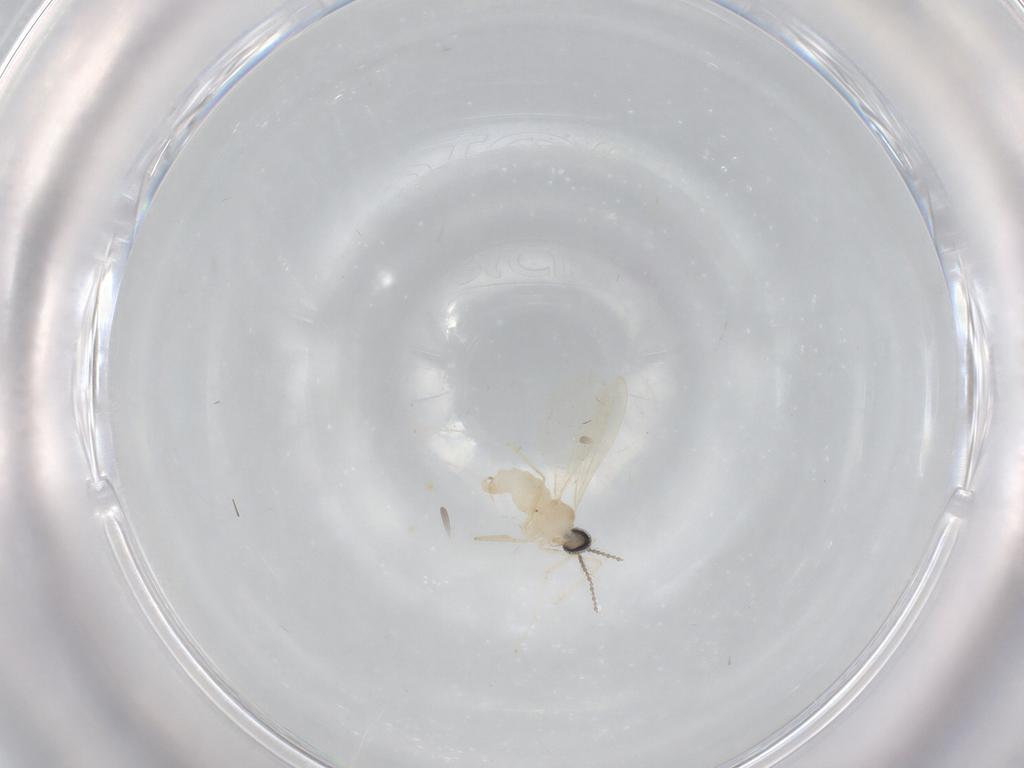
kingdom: Animalia
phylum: Arthropoda
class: Insecta
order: Diptera
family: Cecidomyiidae
